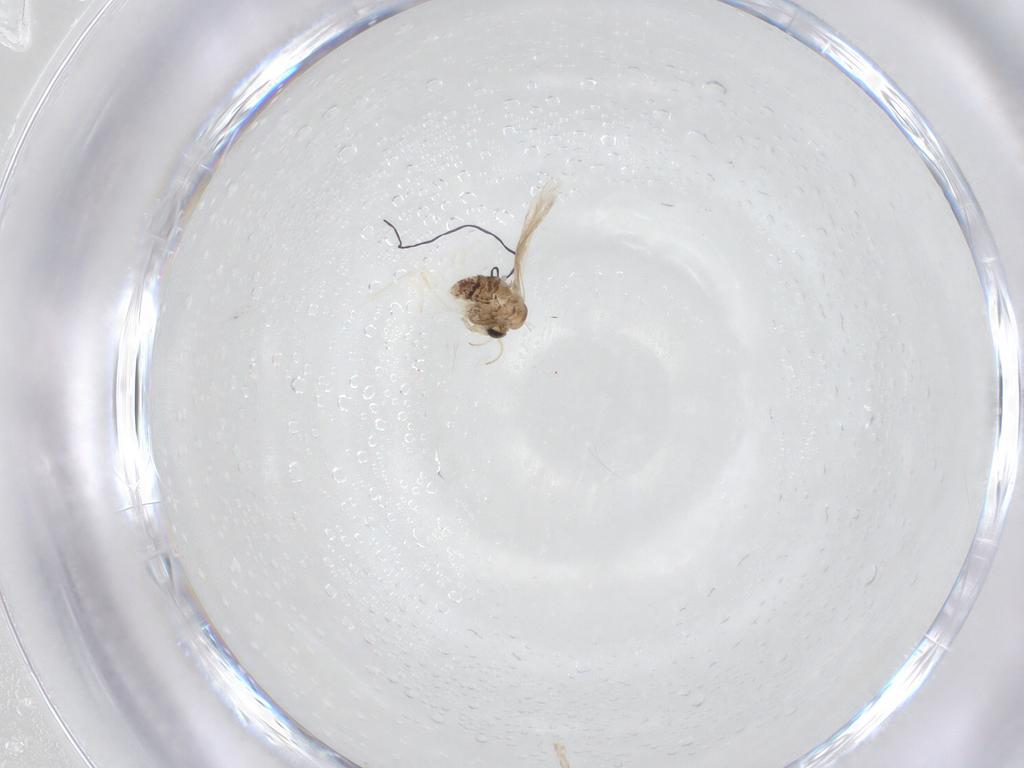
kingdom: Animalia
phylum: Arthropoda
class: Insecta
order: Diptera
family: Chironomidae
